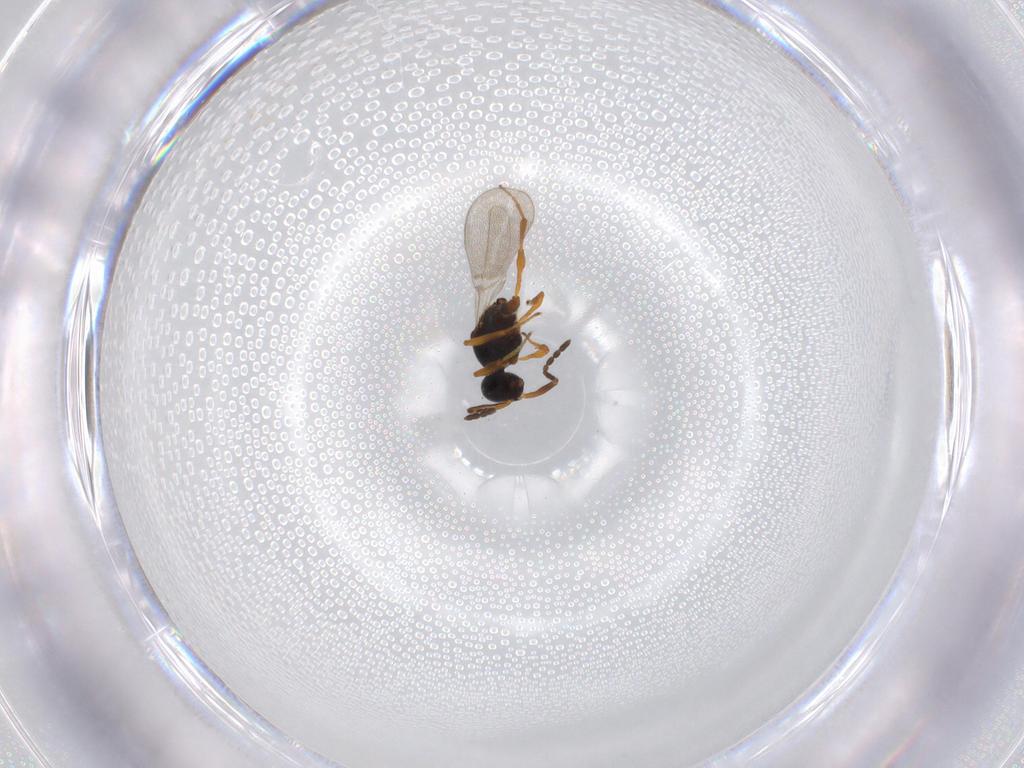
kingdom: Animalia
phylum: Arthropoda
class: Insecta
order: Hymenoptera
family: Platygastridae
